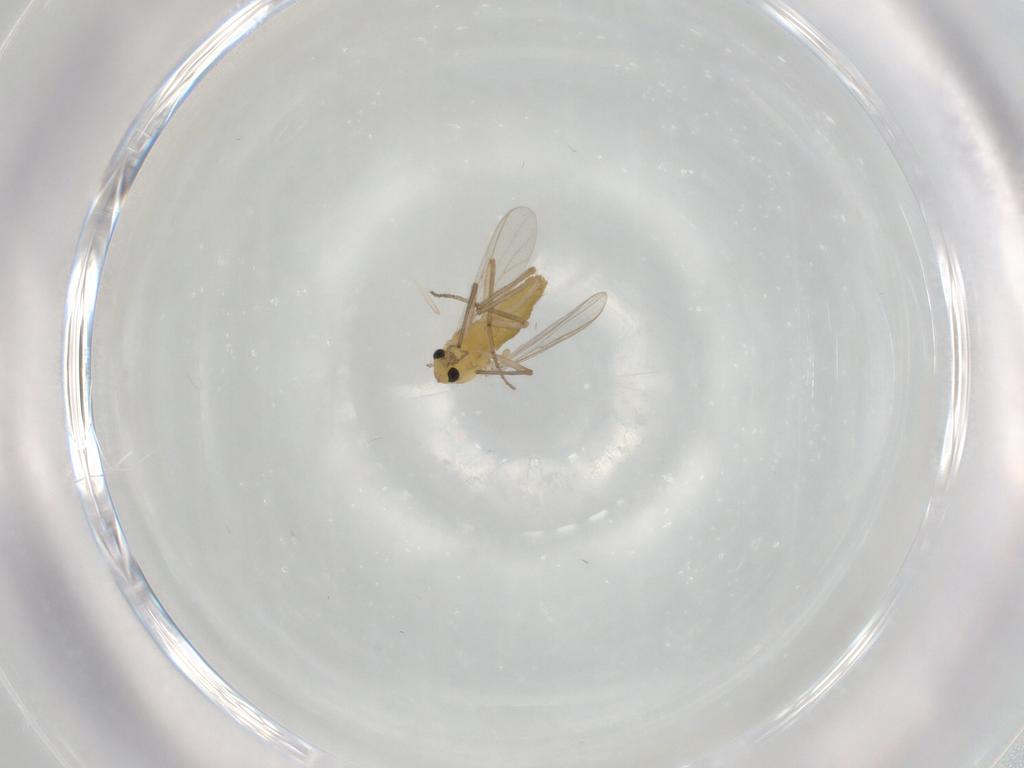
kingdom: Animalia
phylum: Arthropoda
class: Insecta
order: Diptera
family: Chironomidae
